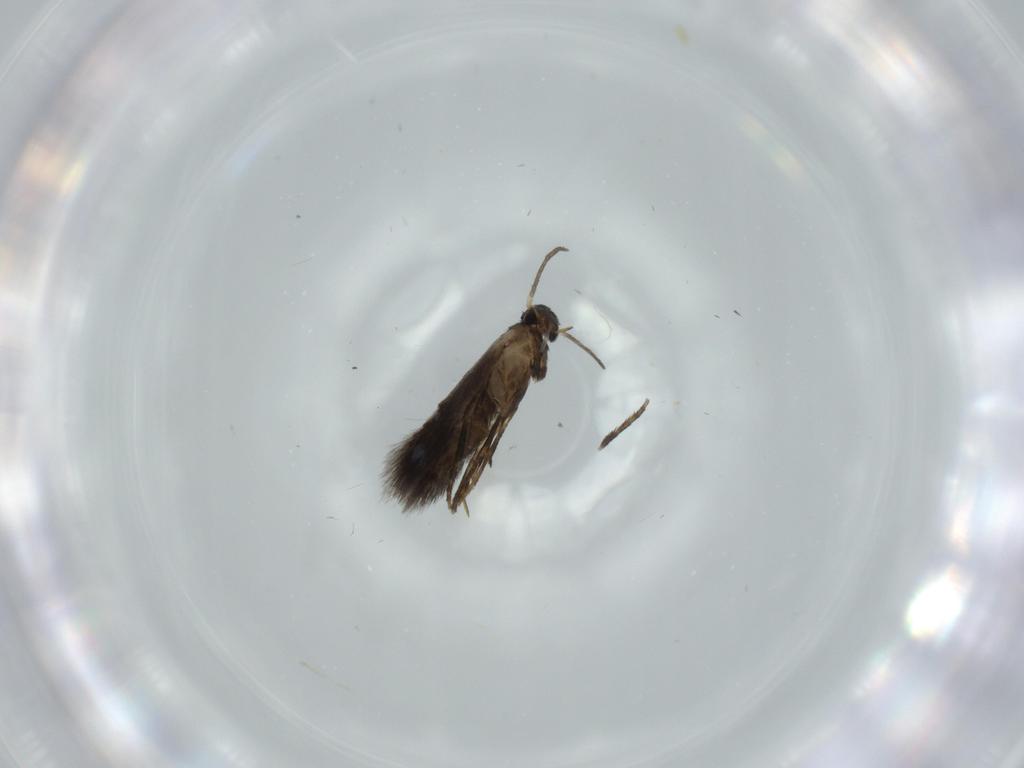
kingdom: Animalia
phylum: Arthropoda
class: Insecta
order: Lepidoptera
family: Heliozelidae
